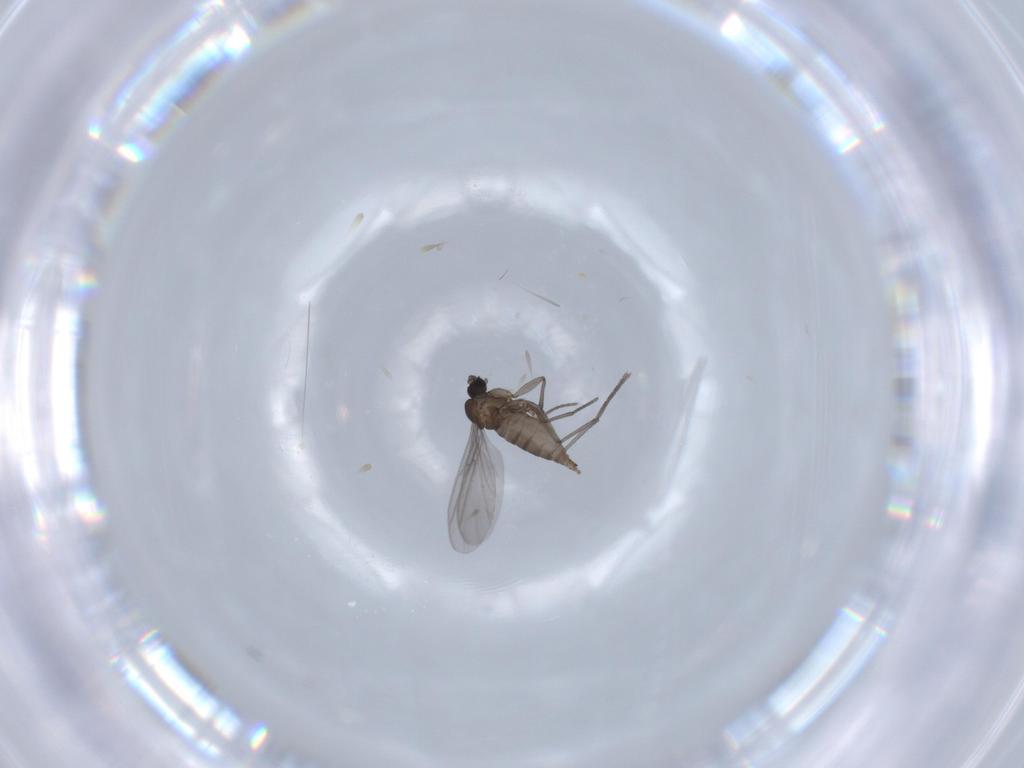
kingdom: Animalia
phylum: Arthropoda
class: Insecta
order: Diptera
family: Sciaridae
